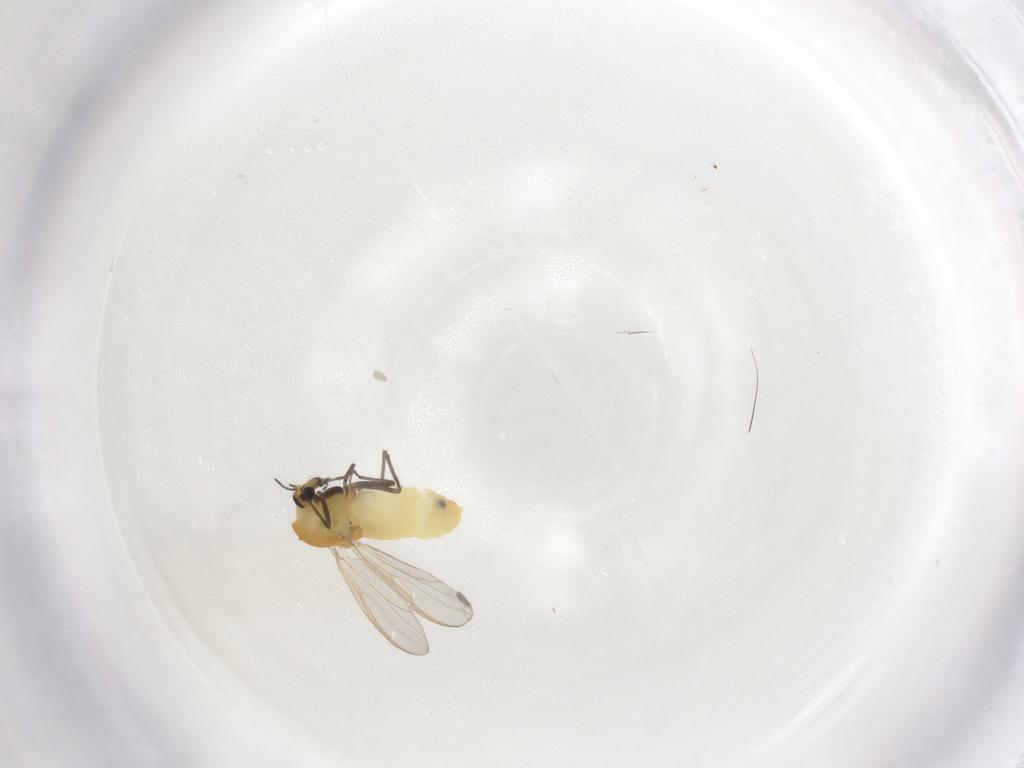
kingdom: Animalia
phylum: Arthropoda
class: Insecta
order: Diptera
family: Chironomidae
